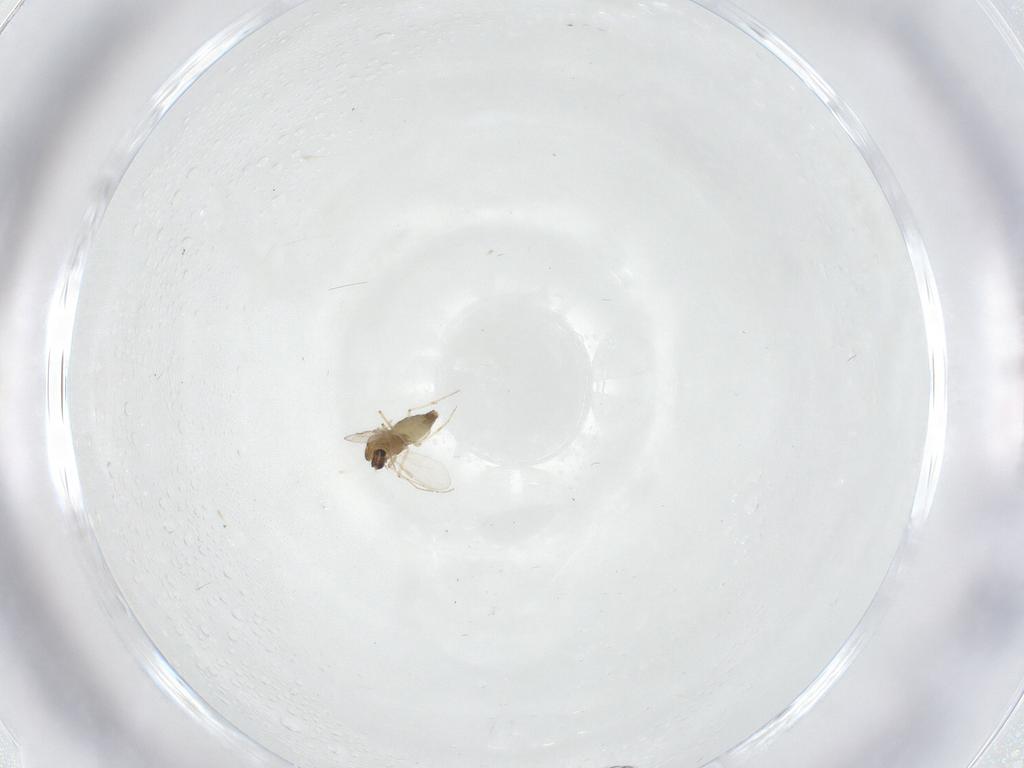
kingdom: Animalia
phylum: Arthropoda
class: Insecta
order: Diptera
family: Chironomidae
